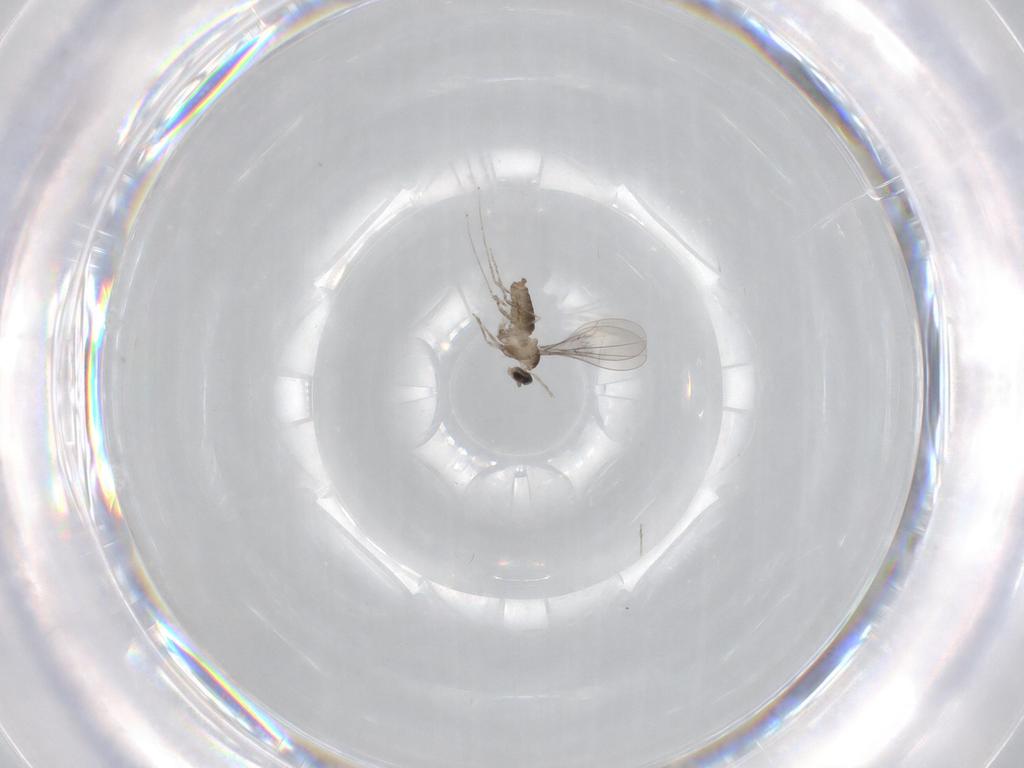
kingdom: Animalia
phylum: Arthropoda
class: Insecta
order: Diptera
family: Cecidomyiidae
